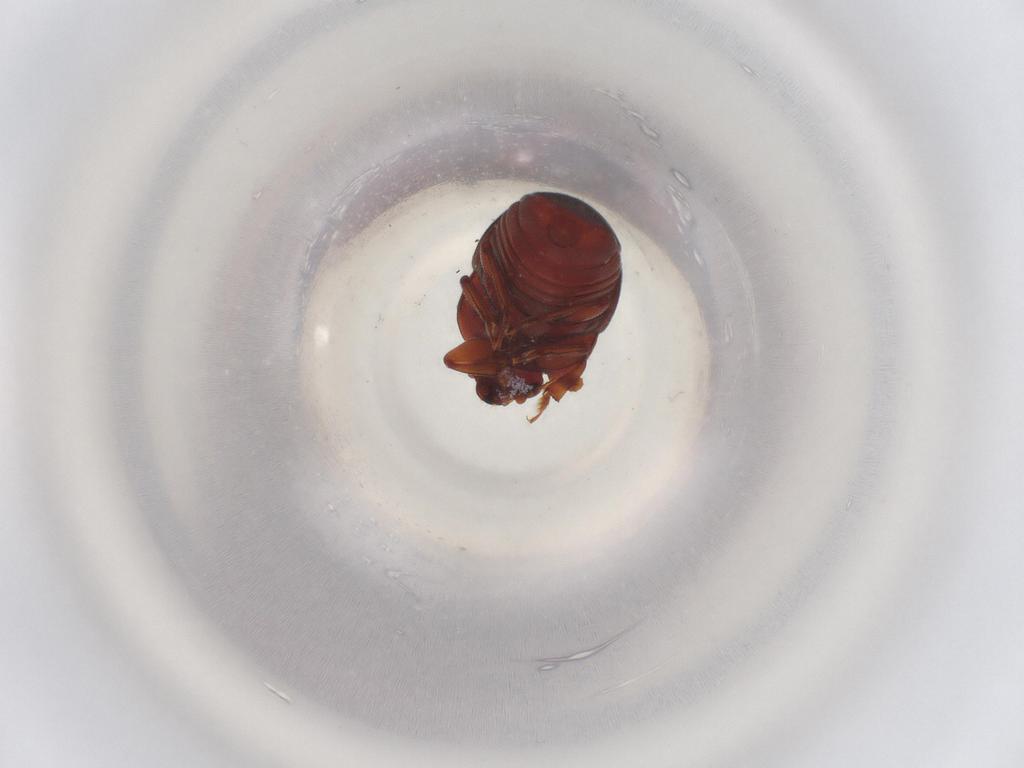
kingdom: Animalia
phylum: Arthropoda
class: Insecta
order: Coleoptera
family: Nitidulidae
